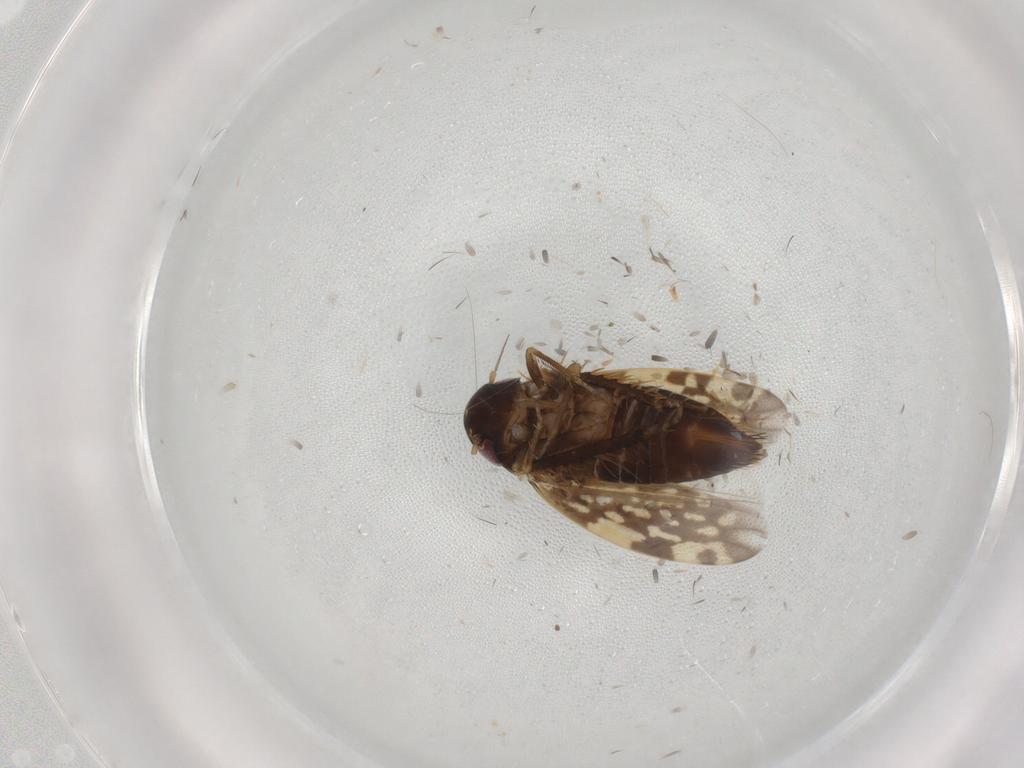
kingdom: Animalia
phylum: Arthropoda
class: Insecta
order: Hemiptera
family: Cicadellidae
